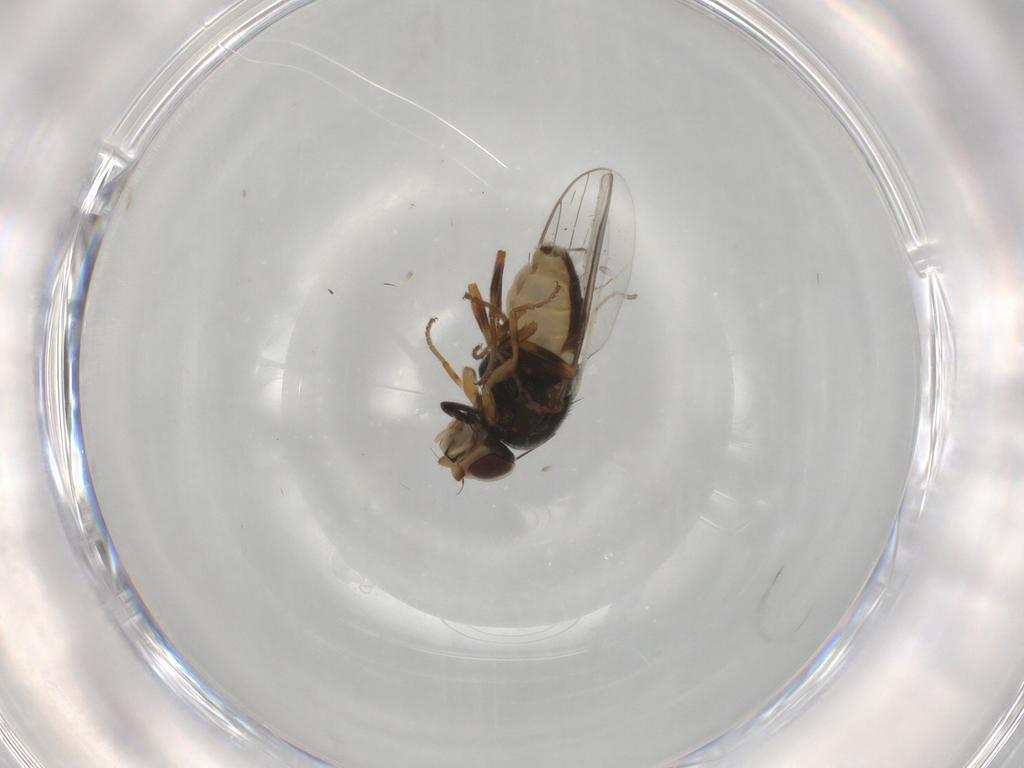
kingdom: Animalia
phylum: Arthropoda
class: Insecta
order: Diptera
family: Chloropidae
